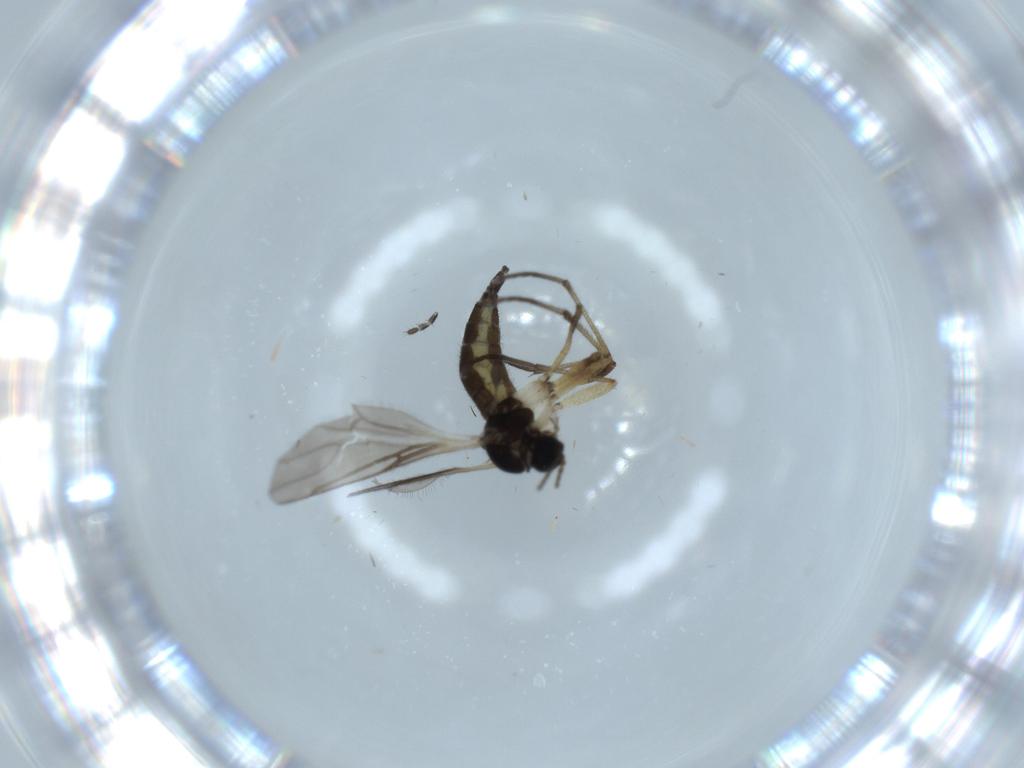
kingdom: Animalia
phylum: Arthropoda
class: Insecta
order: Diptera
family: Sciaridae
